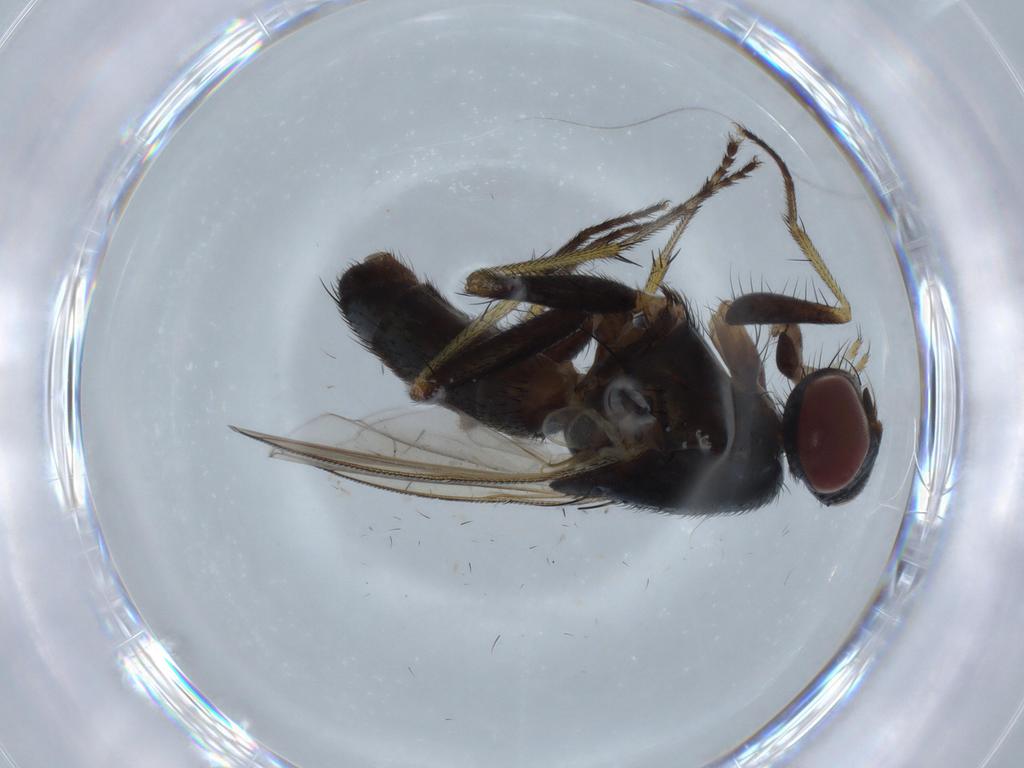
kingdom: Animalia
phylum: Arthropoda
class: Insecta
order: Diptera
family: Muscidae
